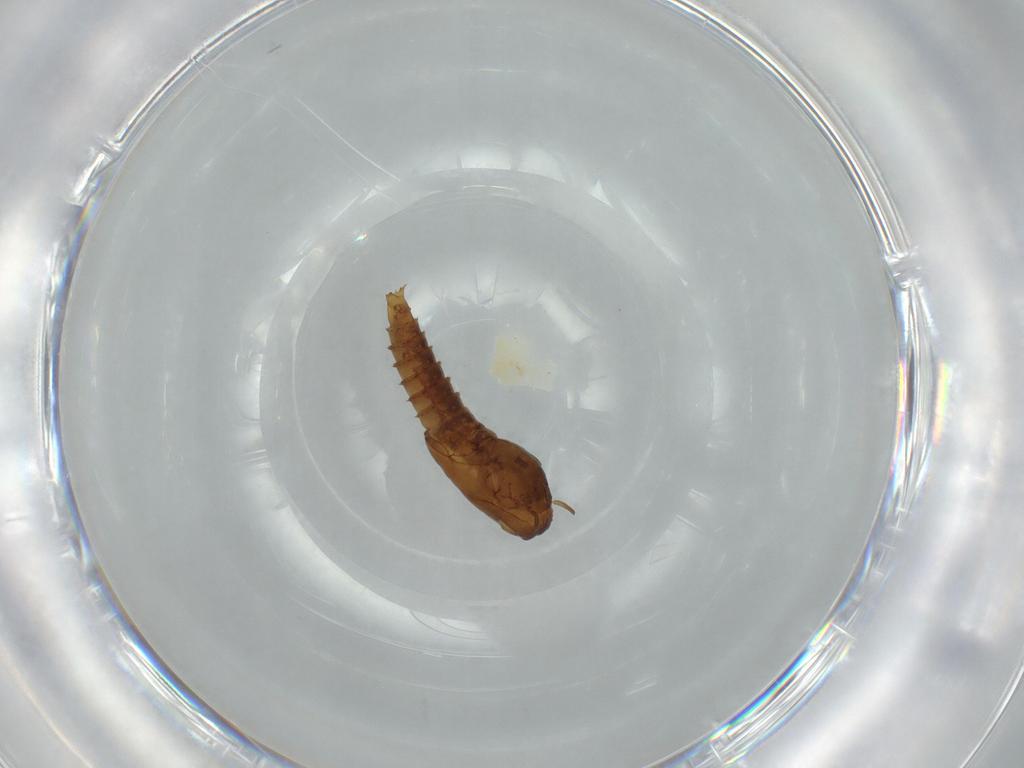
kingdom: Animalia
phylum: Arthropoda
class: Insecta
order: Diptera
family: Ceratopogonidae
